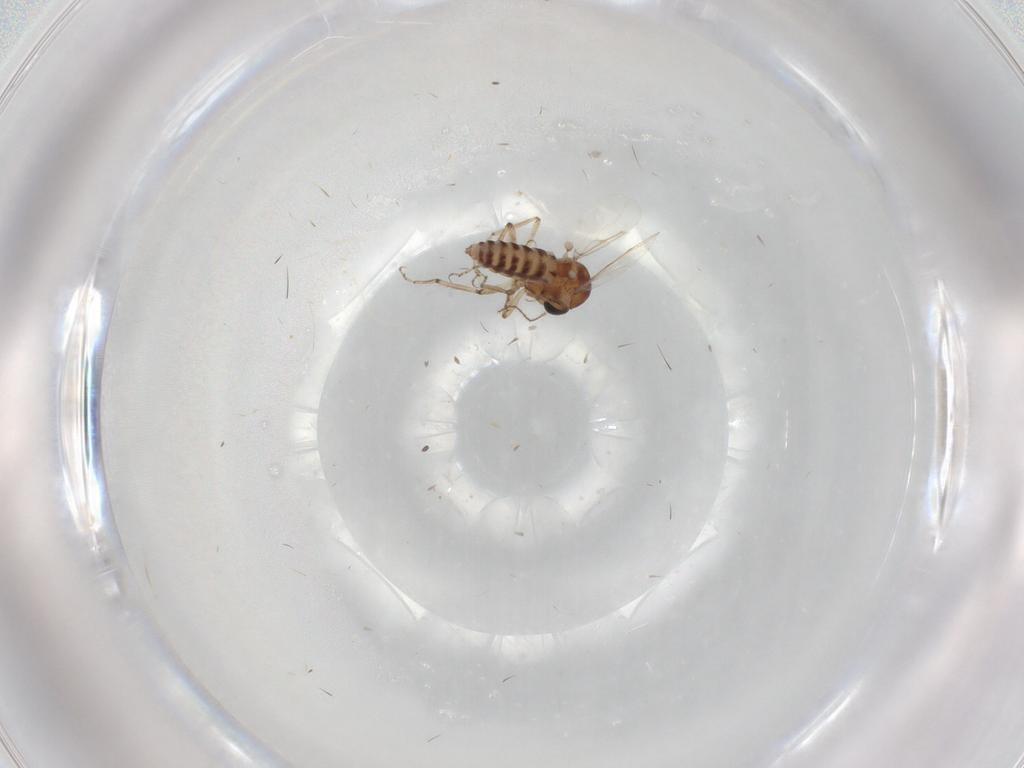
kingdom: Animalia
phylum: Arthropoda
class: Insecta
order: Diptera
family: Ceratopogonidae
